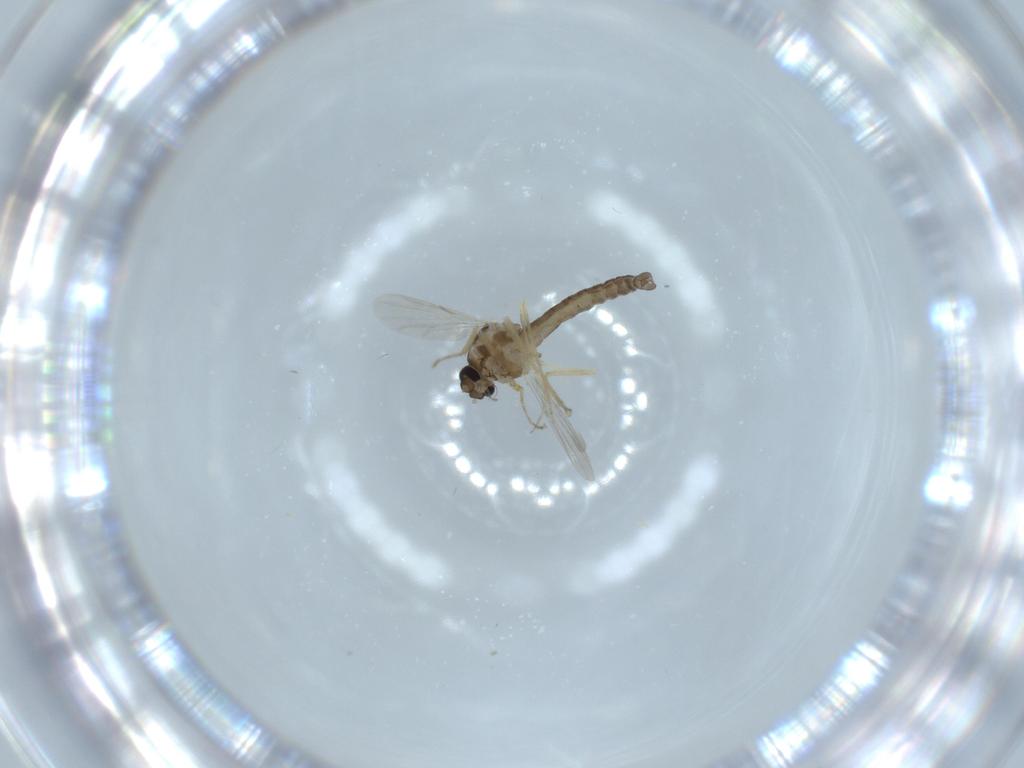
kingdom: Animalia
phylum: Arthropoda
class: Insecta
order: Diptera
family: Ceratopogonidae
